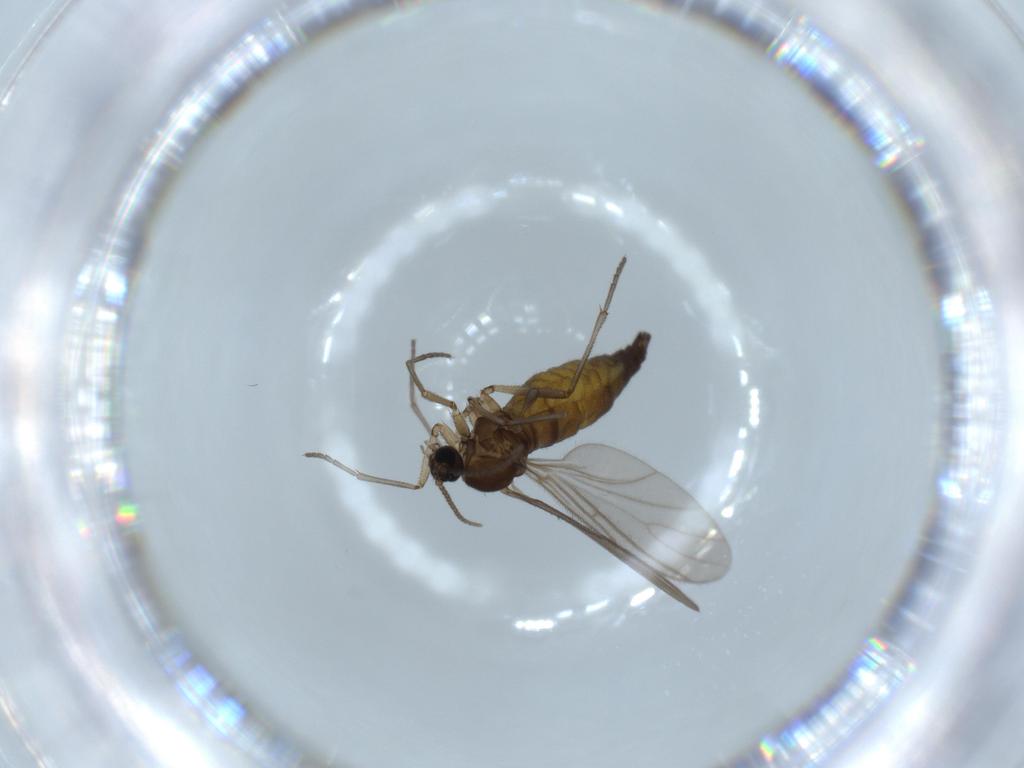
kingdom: Animalia
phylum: Arthropoda
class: Insecta
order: Diptera
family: Sciaridae
